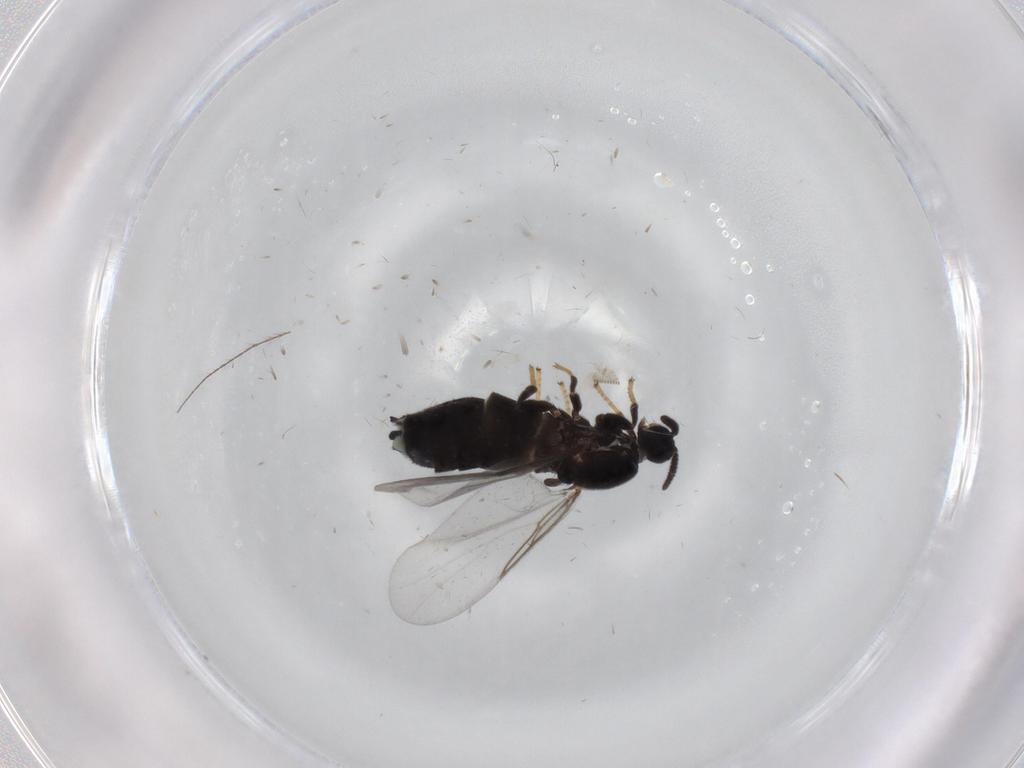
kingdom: Animalia
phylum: Arthropoda
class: Insecta
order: Diptera
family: Scatopsidae
